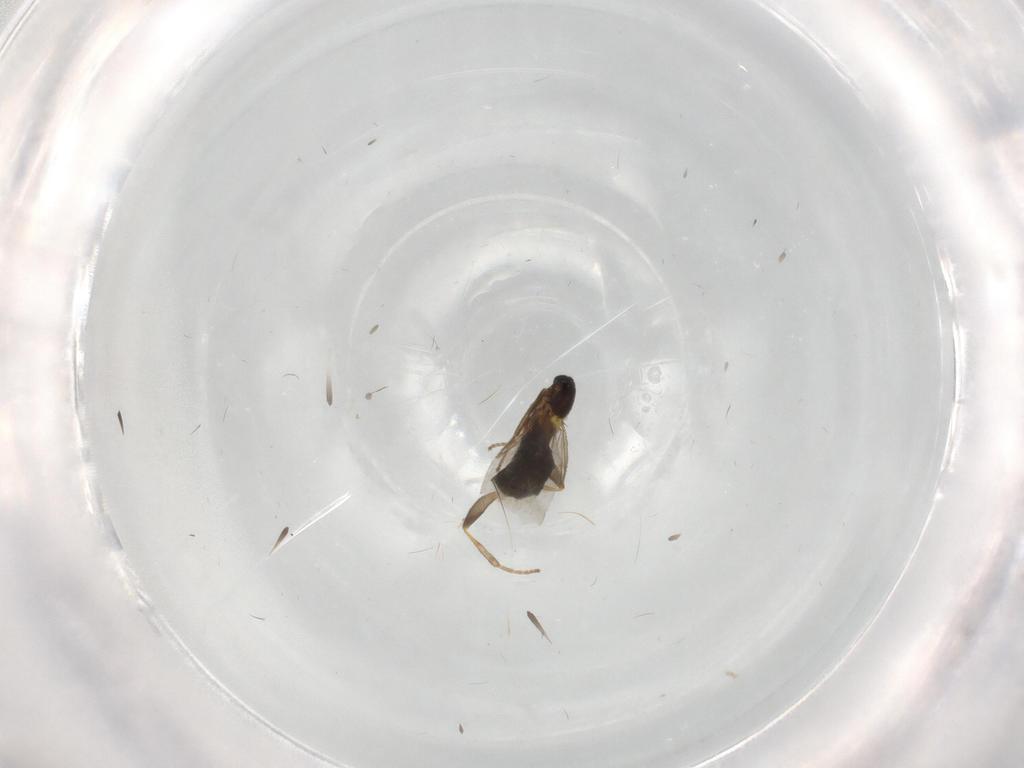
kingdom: Animalia
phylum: Arthropoda
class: Insecta
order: Diptera
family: Scatopsidae
